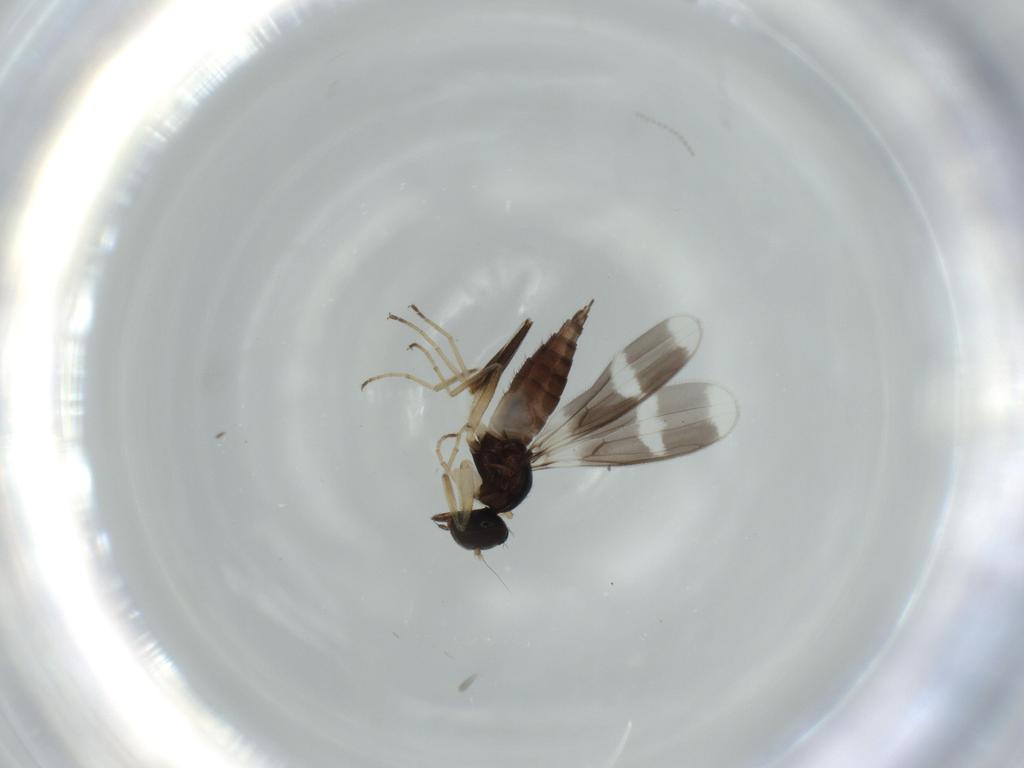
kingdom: Animalia
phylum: Arthropoda
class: Insecta
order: Diptera
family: Hybotidae
